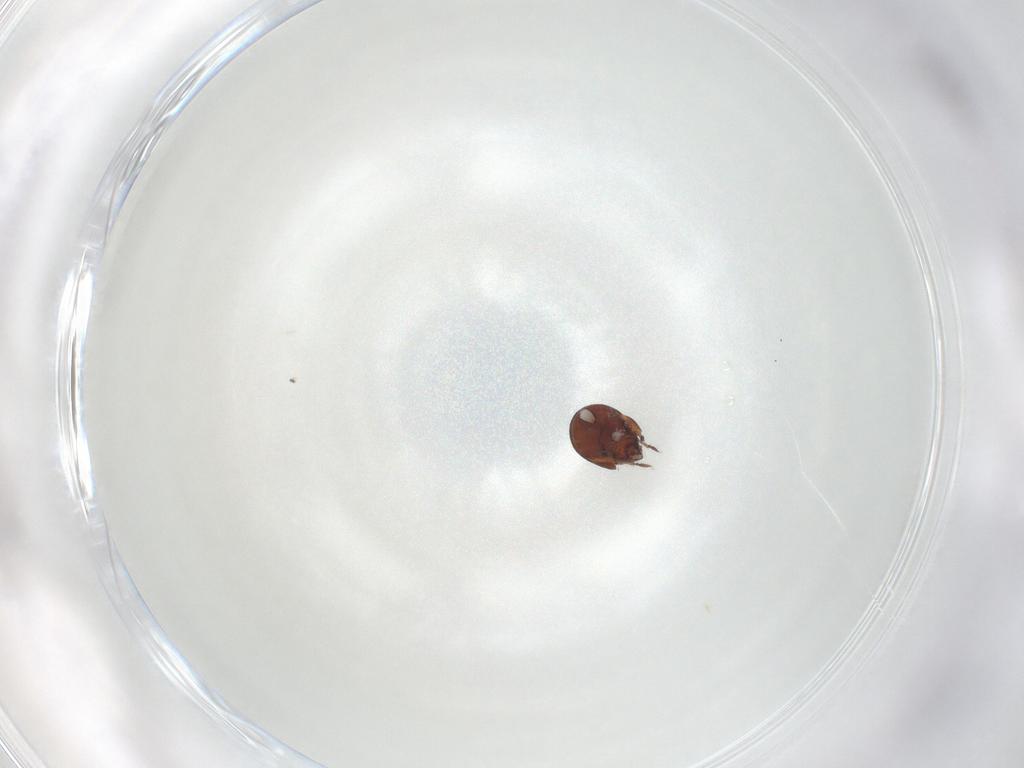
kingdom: Animalia
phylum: Arthropoda
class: Arachnida
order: Sarcoptiformes
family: Humerobatidae
